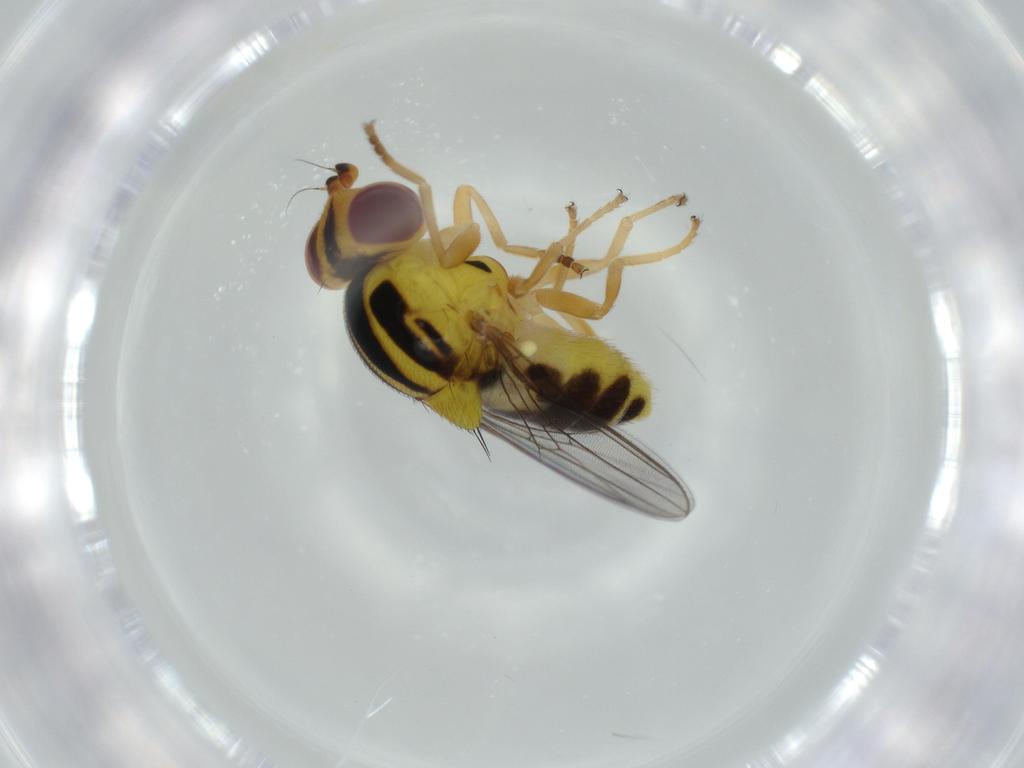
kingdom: Animalia
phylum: Arthropoda
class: Insecta
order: Diptera
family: Chloropidae
